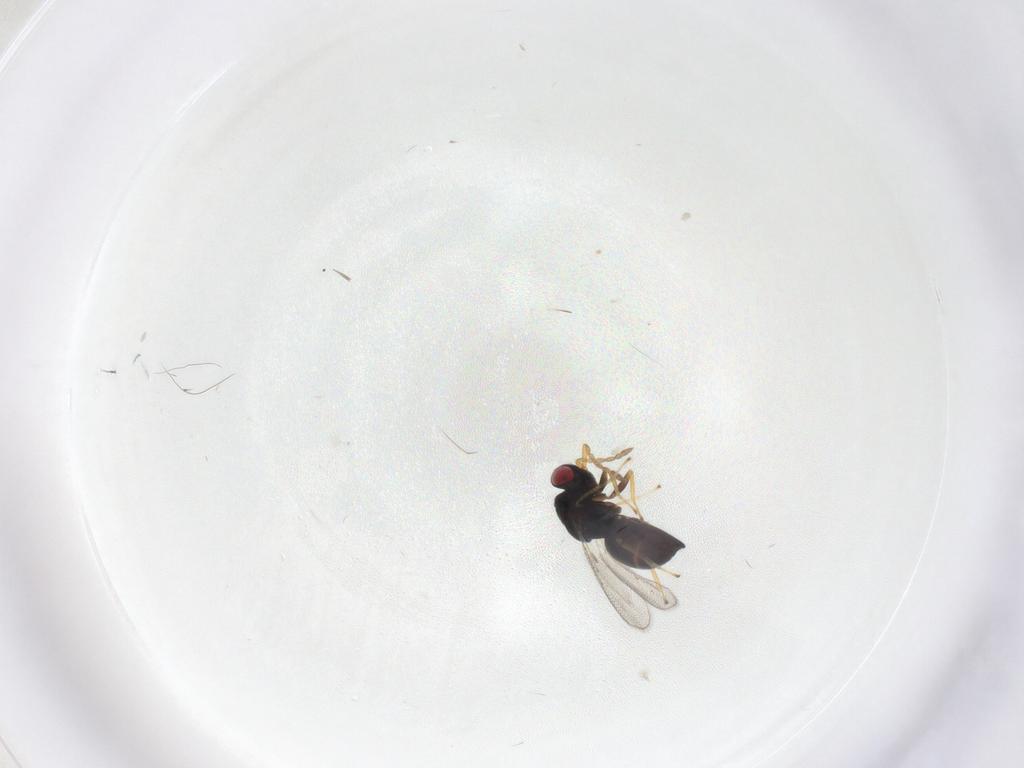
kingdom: Animalia
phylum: Arthropoda
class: Insecta
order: Hymenoptera
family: Eulophidae
